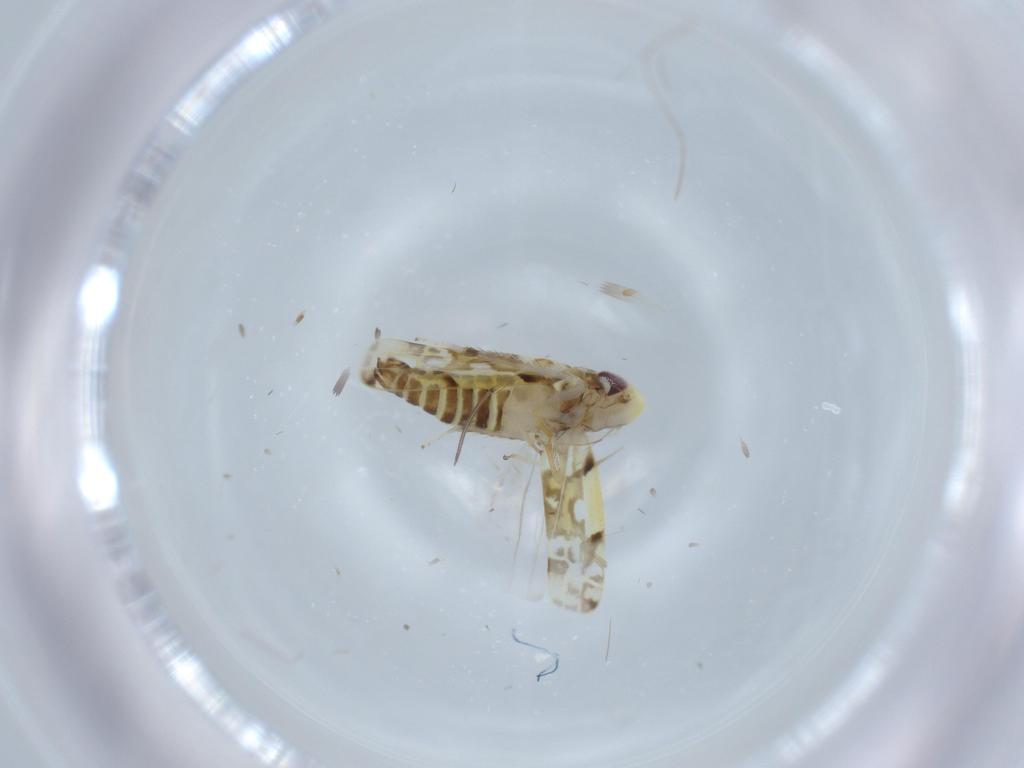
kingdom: Animalia
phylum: Arthropoda
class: Insecta
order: Hemiptera
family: Cicadellidae
